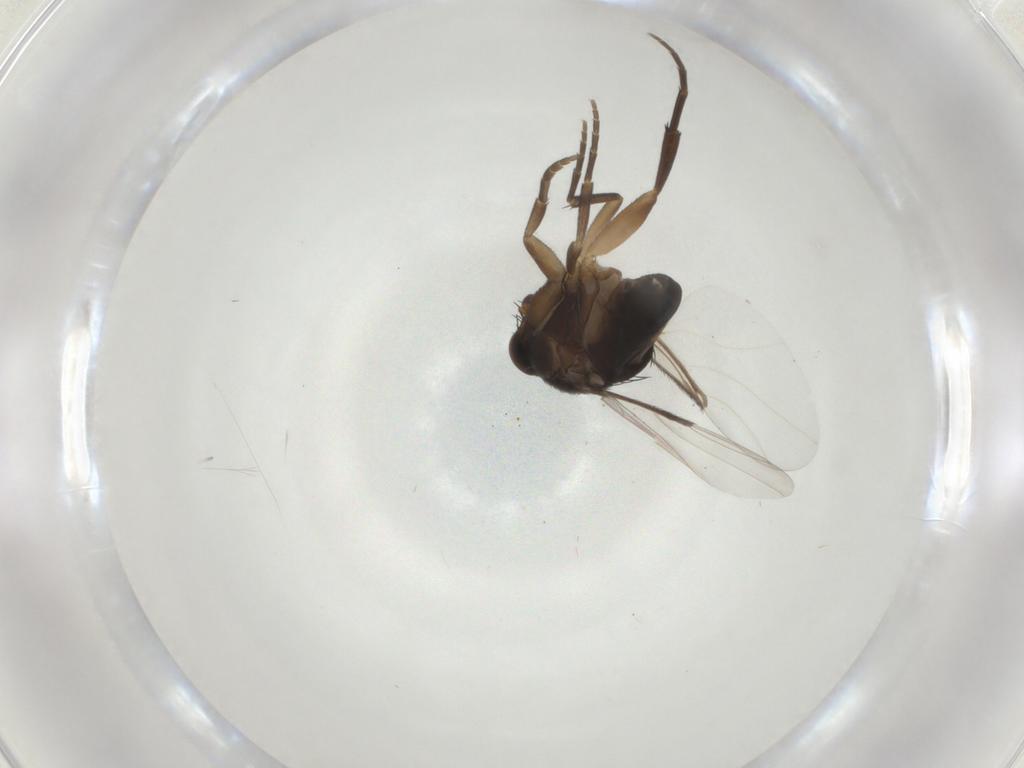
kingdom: Animalia
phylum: Arthropoda
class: Insecta
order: Diptera
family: Phoridae
